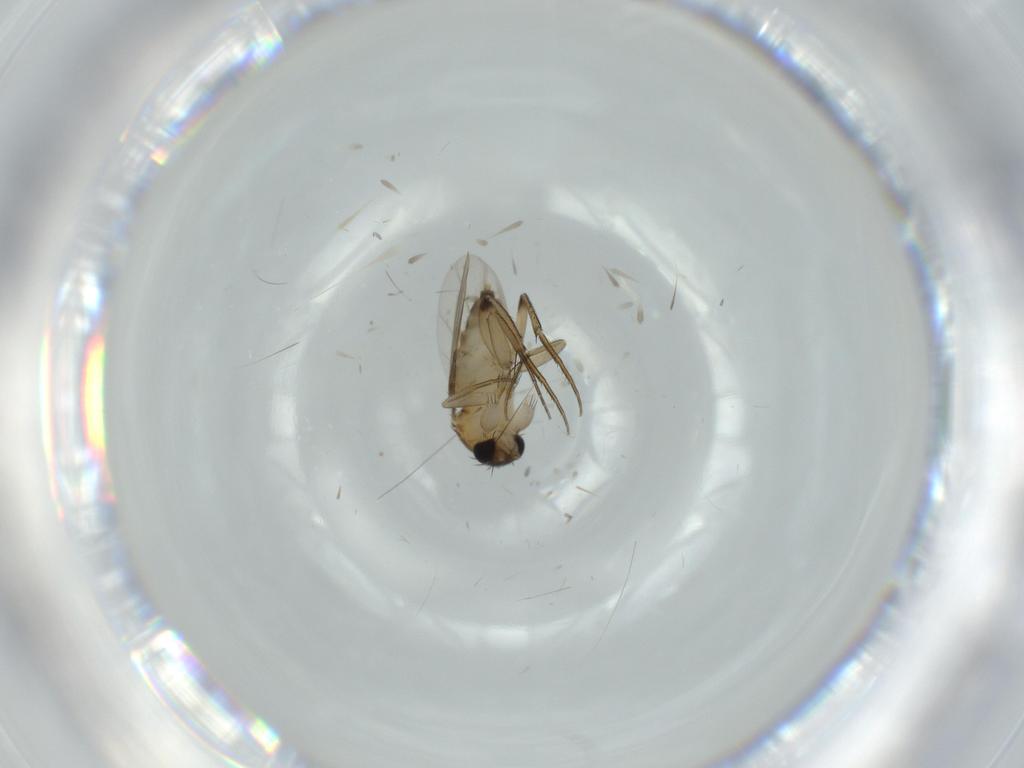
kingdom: Animalia
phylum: Arthropoda
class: Insecta
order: Diptera
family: Phoridae
